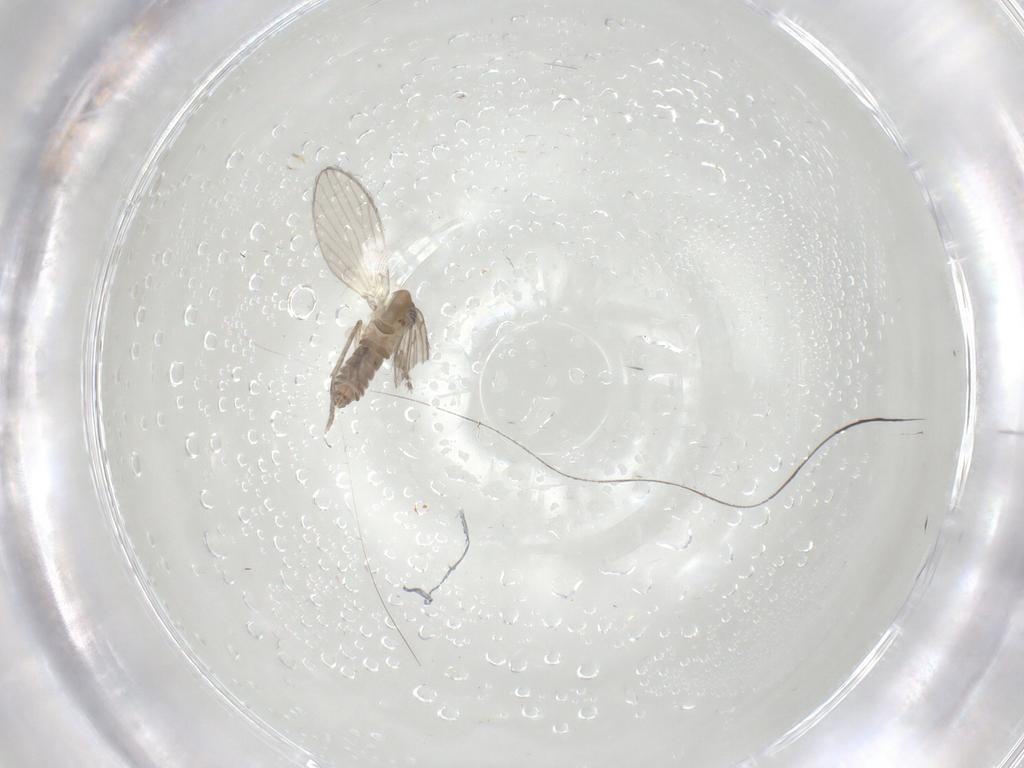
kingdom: Animalia
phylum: Arthropoda
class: Insecta
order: Diptera
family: Psychodidae
